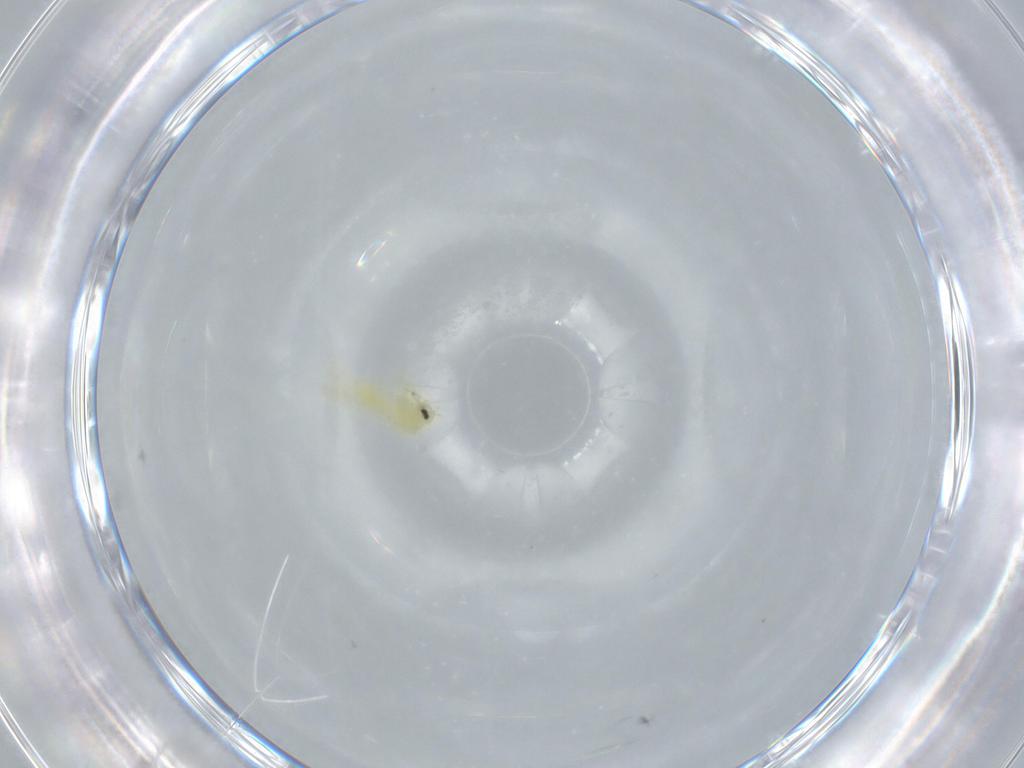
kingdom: Animalia
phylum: Arthropoda
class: Insecta
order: Hemiptera
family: Aleyrodidae
